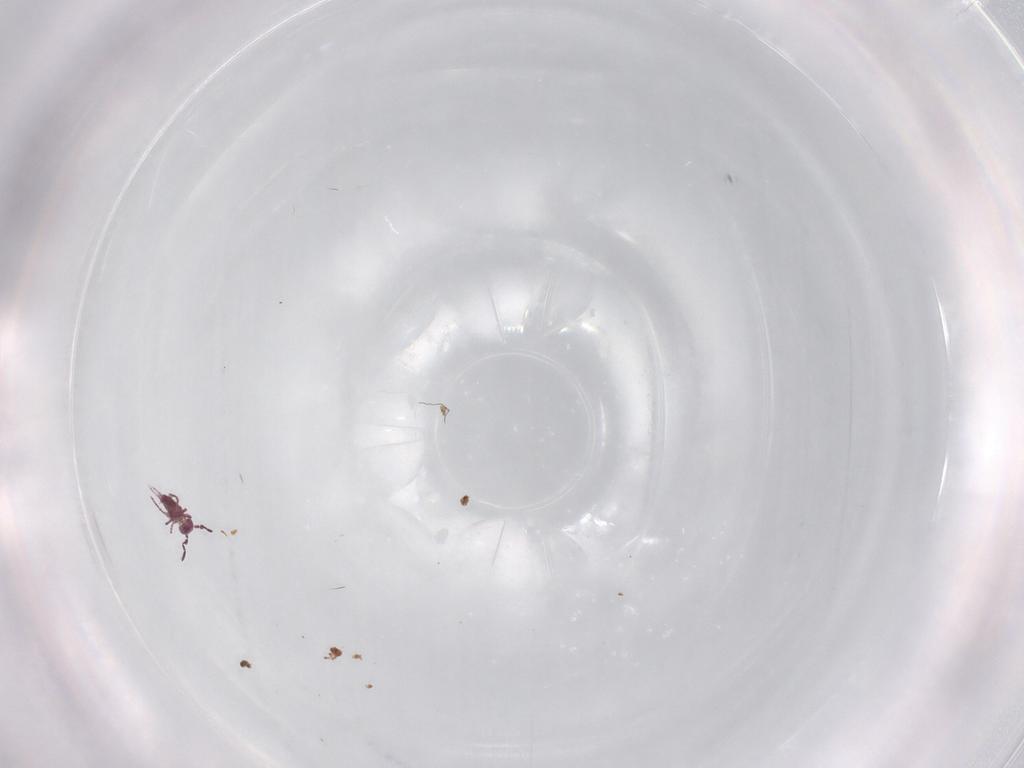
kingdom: Animalia
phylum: Arthropoda
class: Collembola
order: Symphypleona
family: Sminthurididae
